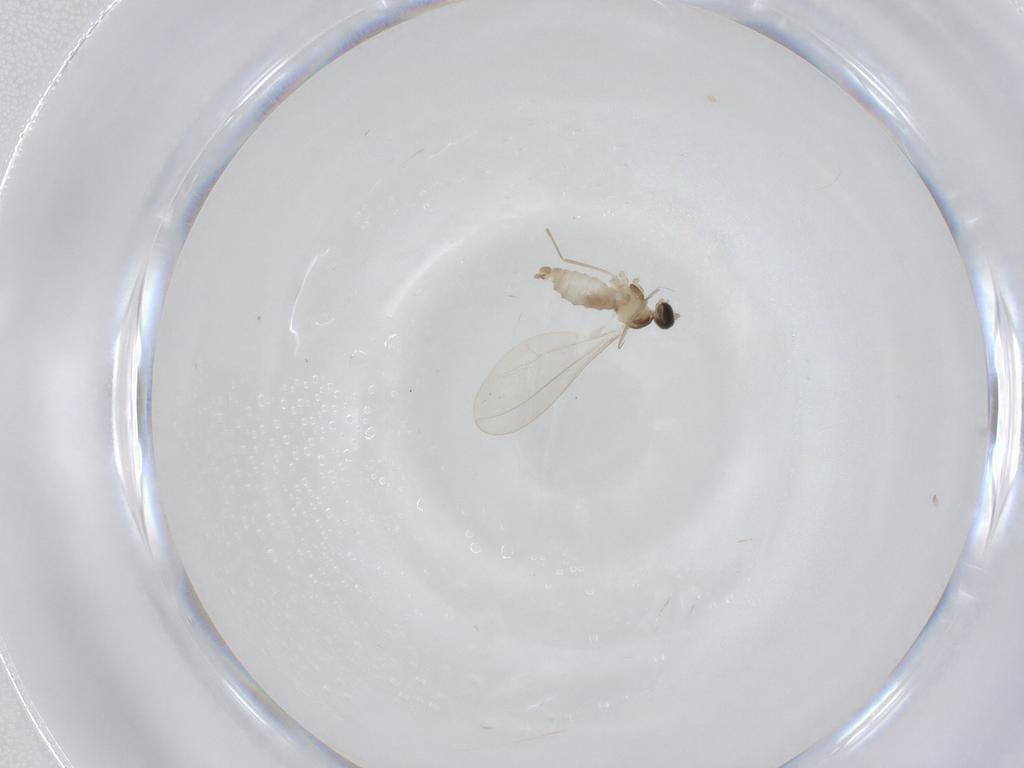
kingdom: Animalia
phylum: Arthropoda
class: Insecta
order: Diptera
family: Cecidomyiidae
